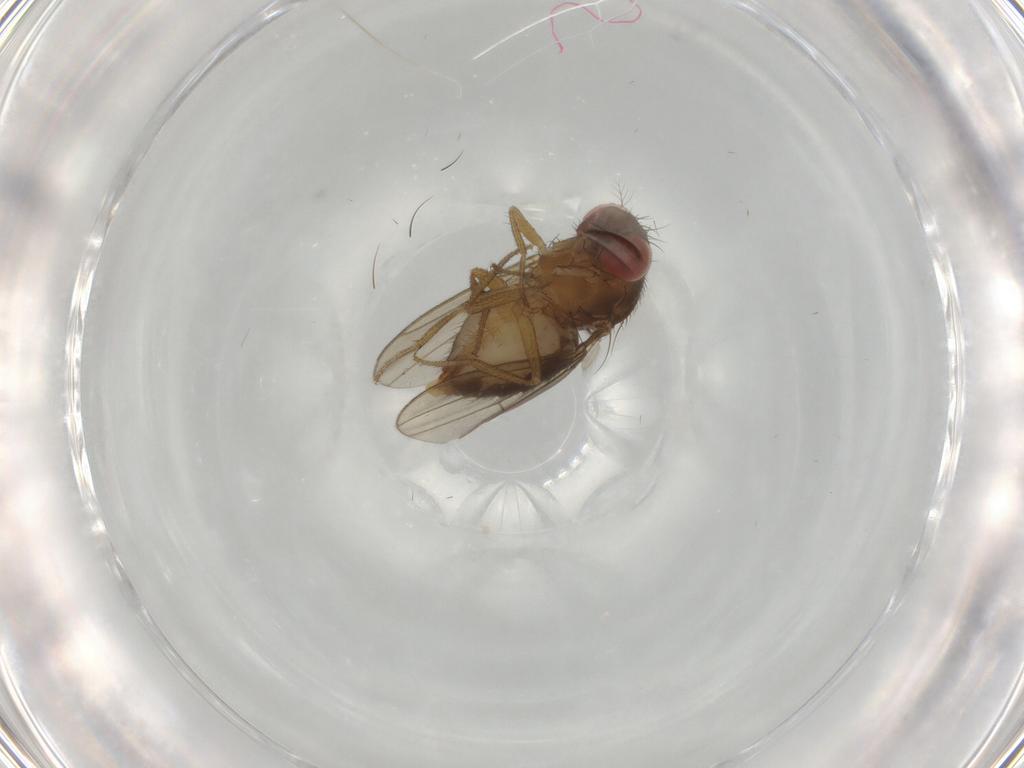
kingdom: Animalia
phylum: Arthropoda
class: Insecta
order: Diptera
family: Drosophilidae
